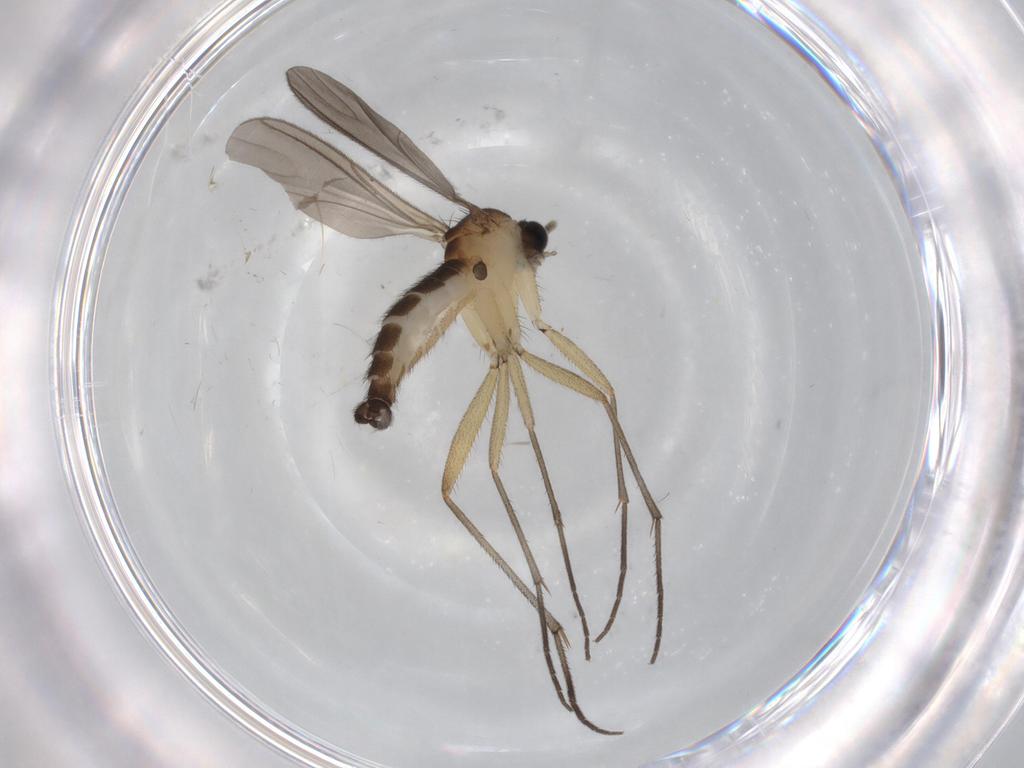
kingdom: Animalia
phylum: Arthropoda
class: Insecta
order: Diptera
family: Sciaridae
